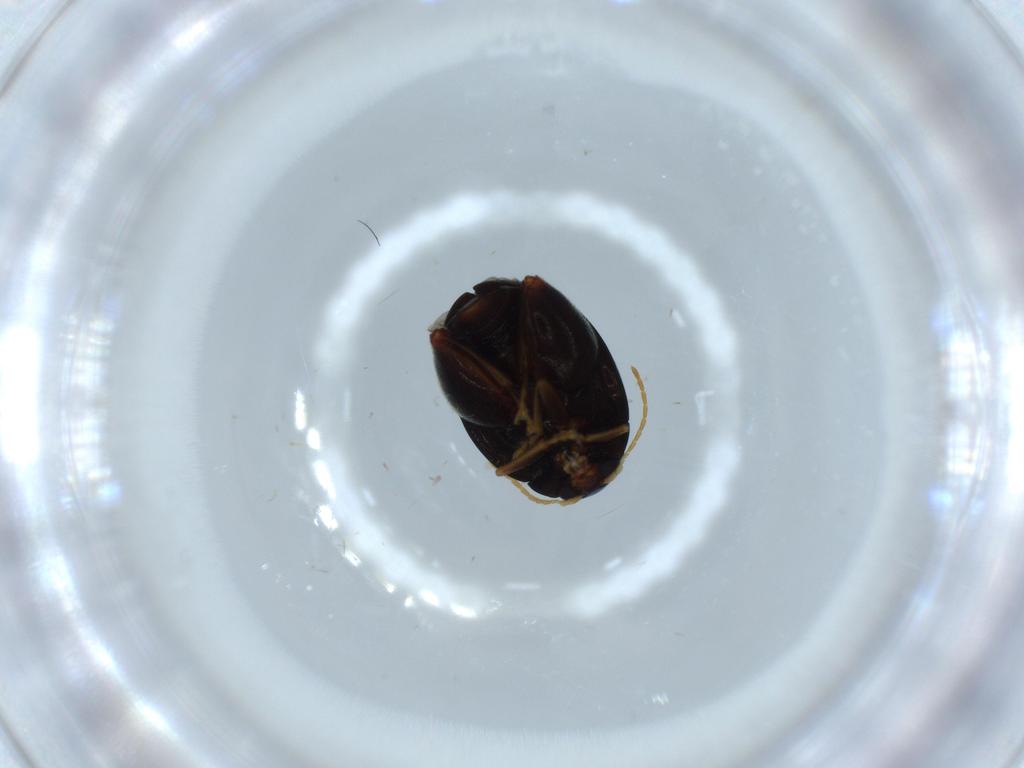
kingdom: Animalia
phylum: Arthropoda
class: Insecta
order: Coleoptera
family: Chrysomelidae
